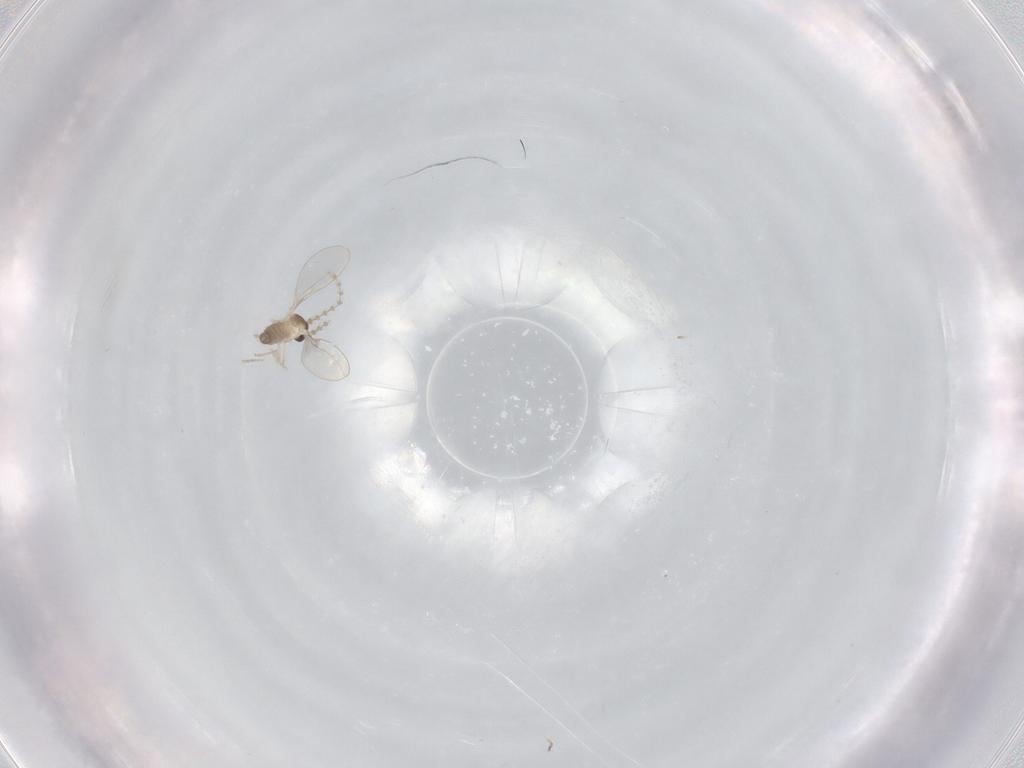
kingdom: Animalia
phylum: Arthropoda
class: Insecta
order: Diptera
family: Cecidomyiidae
